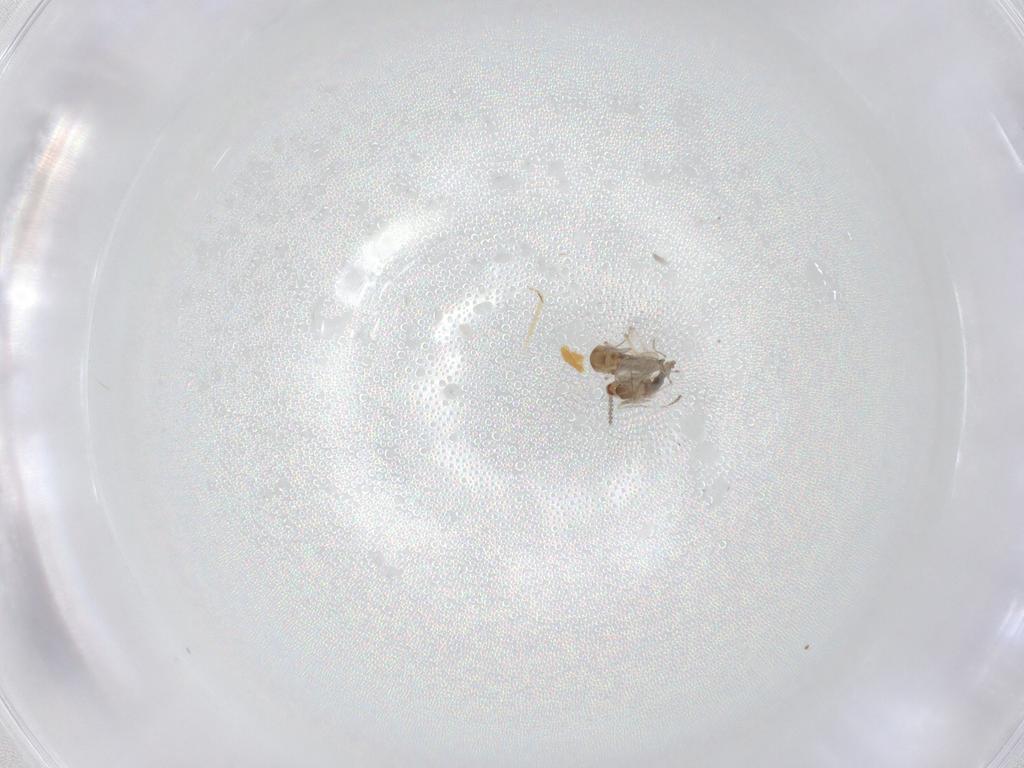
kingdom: Animalia
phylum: Arthropoda
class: Insecta
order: Diptera
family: Cecidomyiidae
